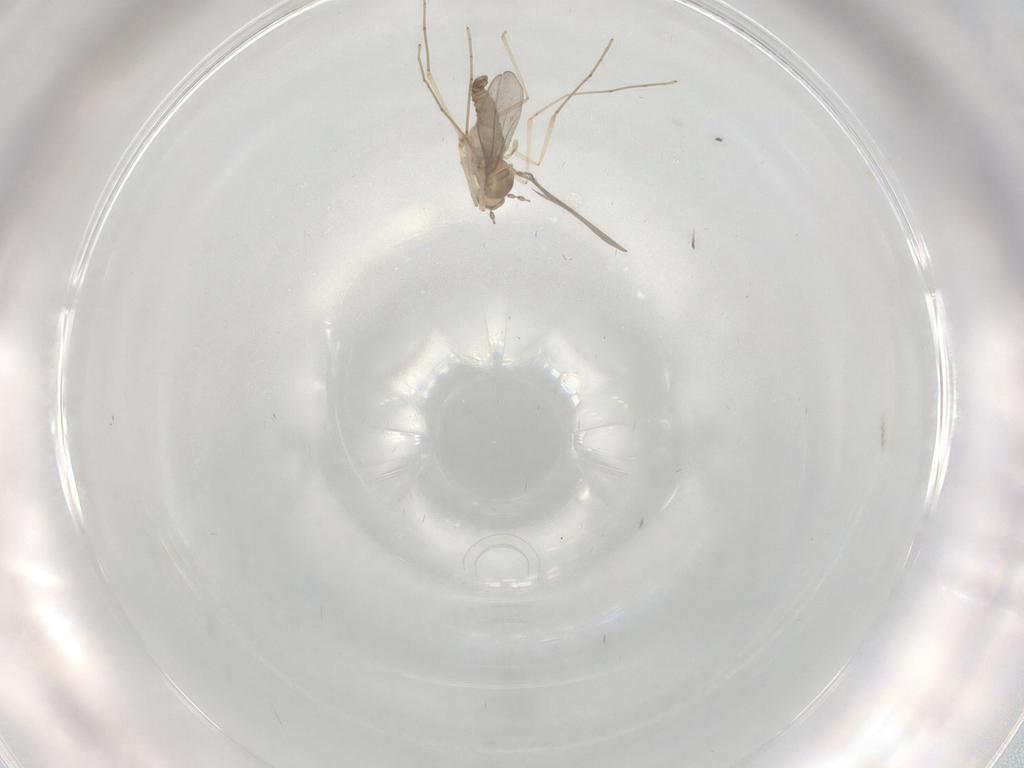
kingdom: Animalia
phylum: Arthropoda
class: Insecta
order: Diptera
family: Cecidomyiidae
